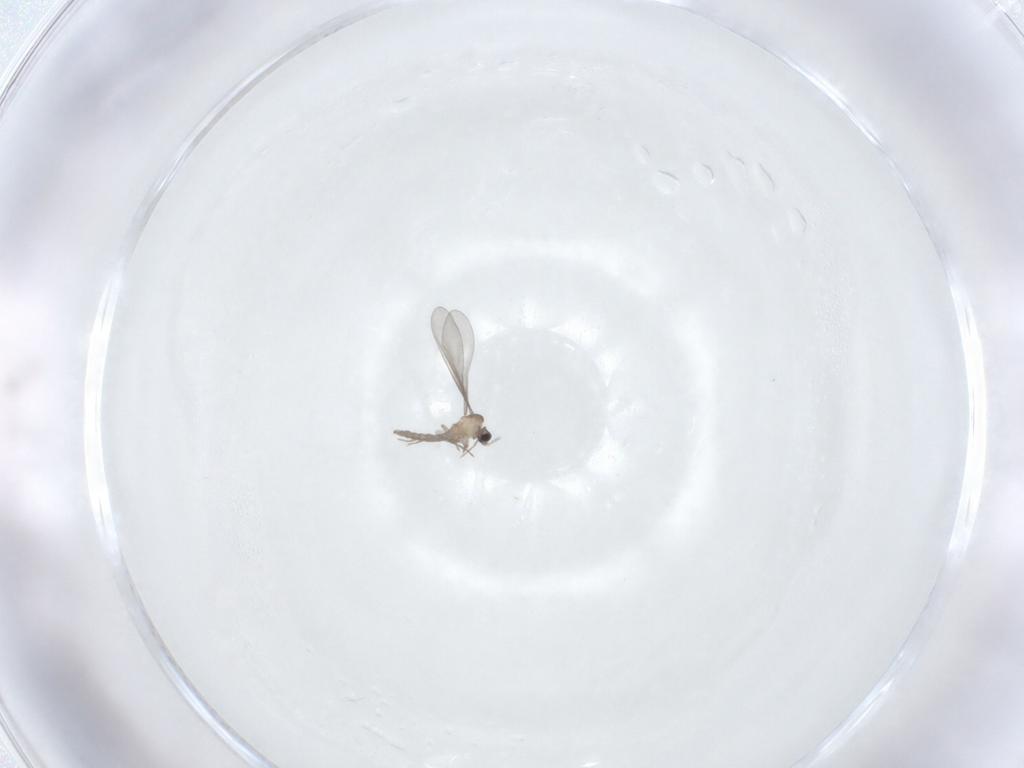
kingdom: Animalia
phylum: Arthropoda
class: Insecta
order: Diptera
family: Cecidomyiidae
